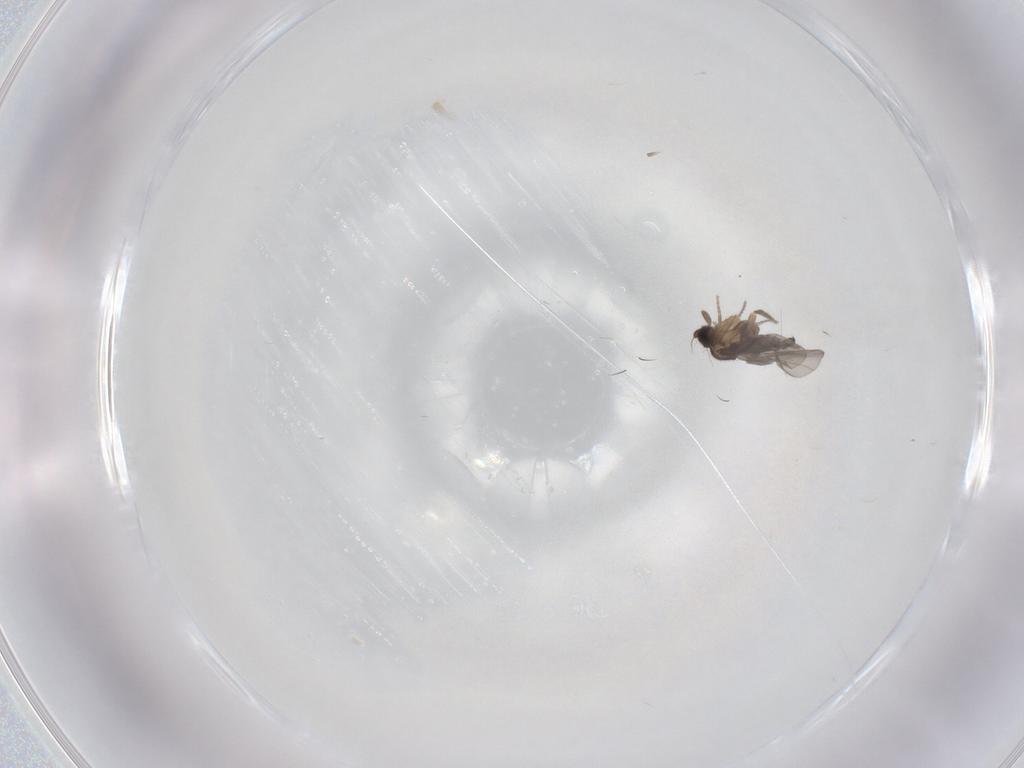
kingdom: Animalia
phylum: Arthropoda
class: Insecta
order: Diptera
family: Phoridae
